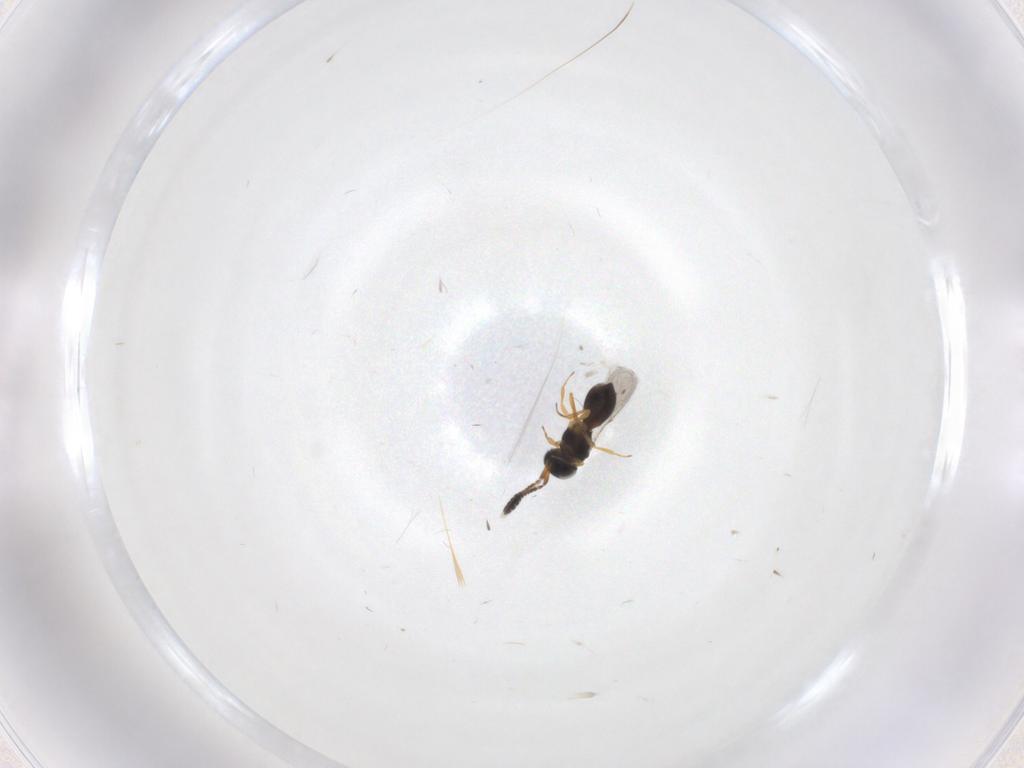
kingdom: Animalia
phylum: Arthropoda
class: Insecta
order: Hymenoptera
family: Scelionidae
